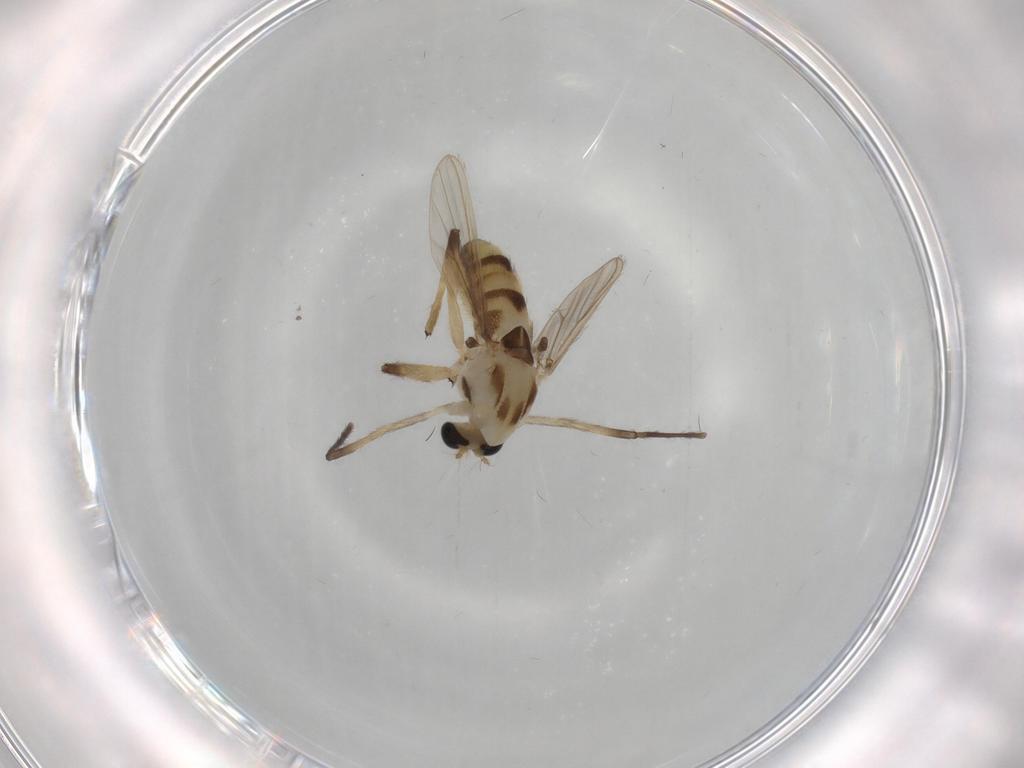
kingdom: Animalia
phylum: Arthropoda
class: Insecta
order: Diptera
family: Chironomidae
